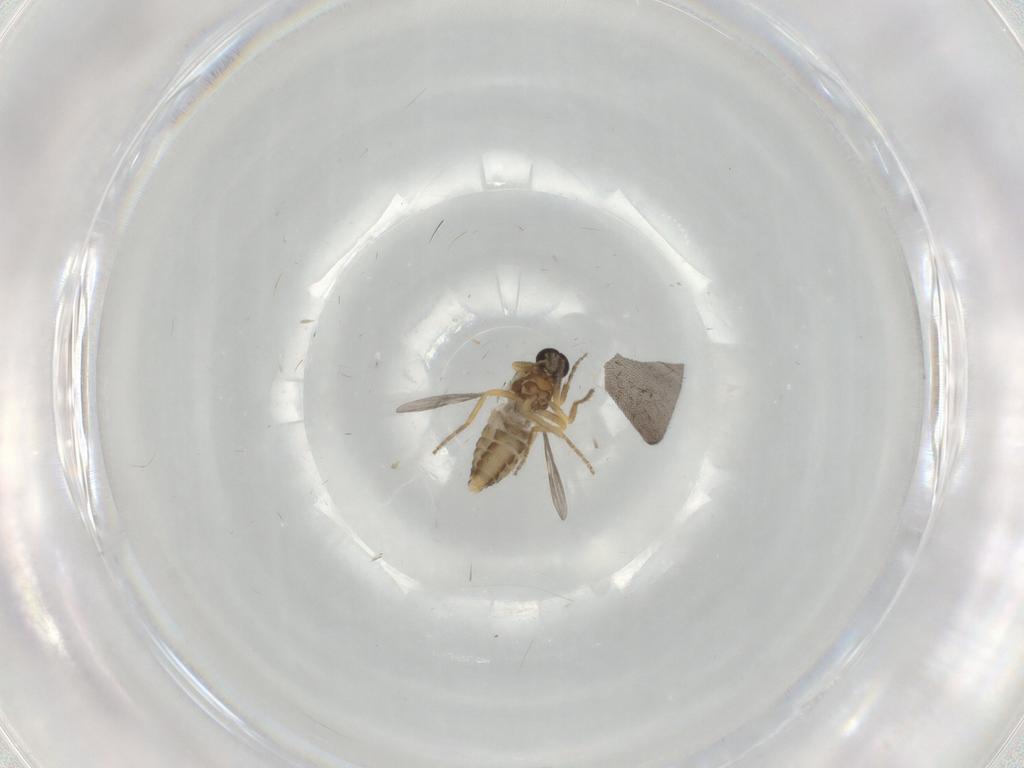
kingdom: Animalia
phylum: Arthropoda
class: Insecta
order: Diptera
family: Ceratopogonidae
